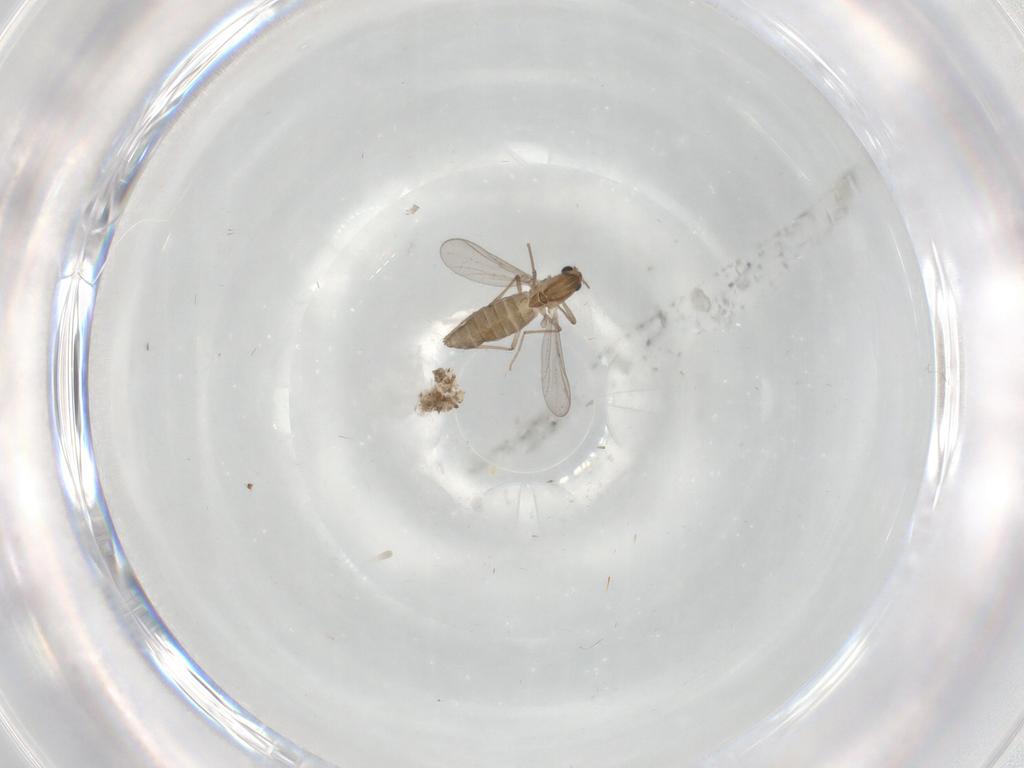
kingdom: Animalia
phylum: Arthropoda
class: Insecta
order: Diptera
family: Chironomidae
